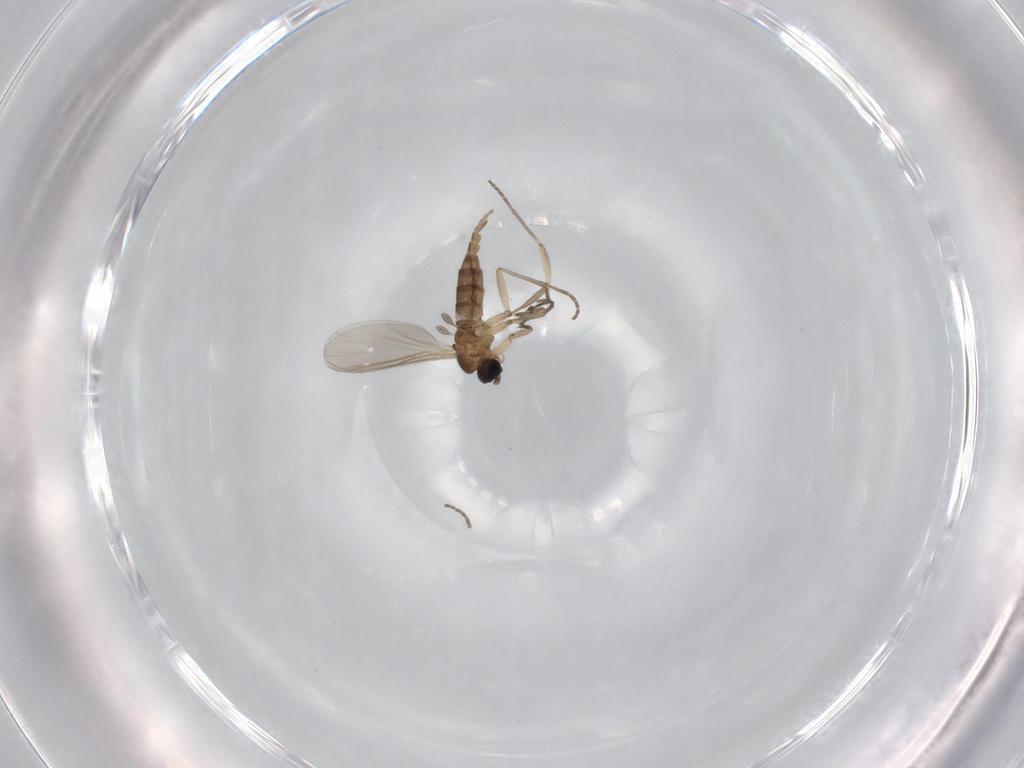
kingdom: Animalia
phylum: Arthropoda
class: Insecta
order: Diptera
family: Sciaridae
